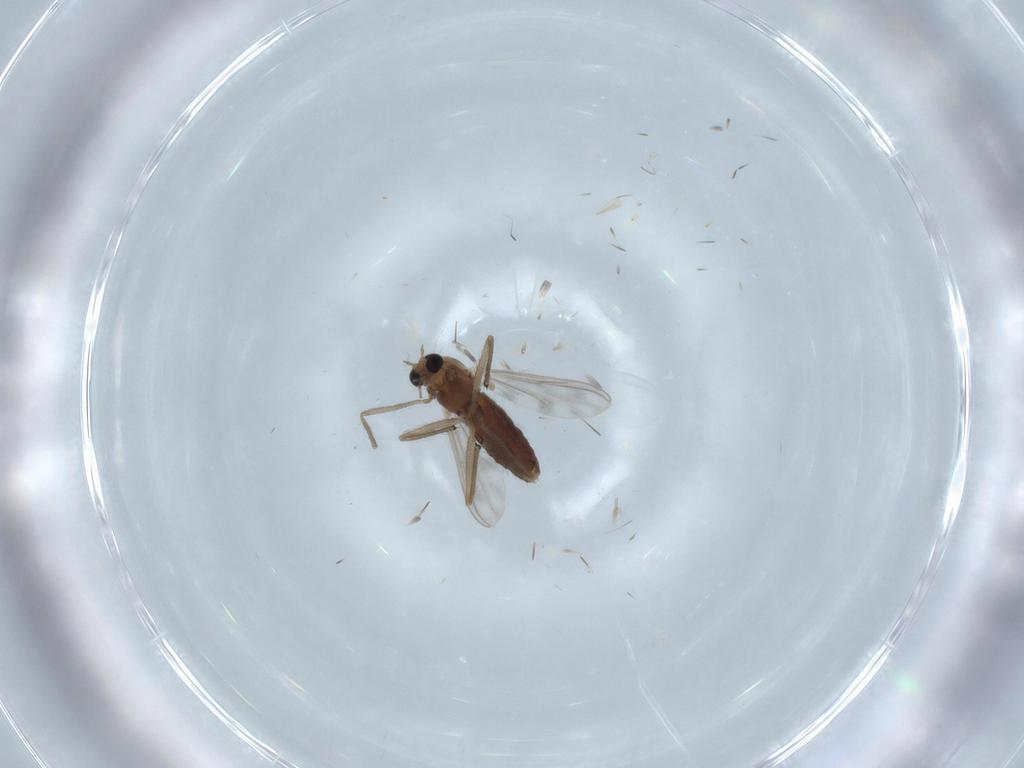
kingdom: Animalia
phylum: Arthropoda
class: Insecta
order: Diptera
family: Chironomidae
